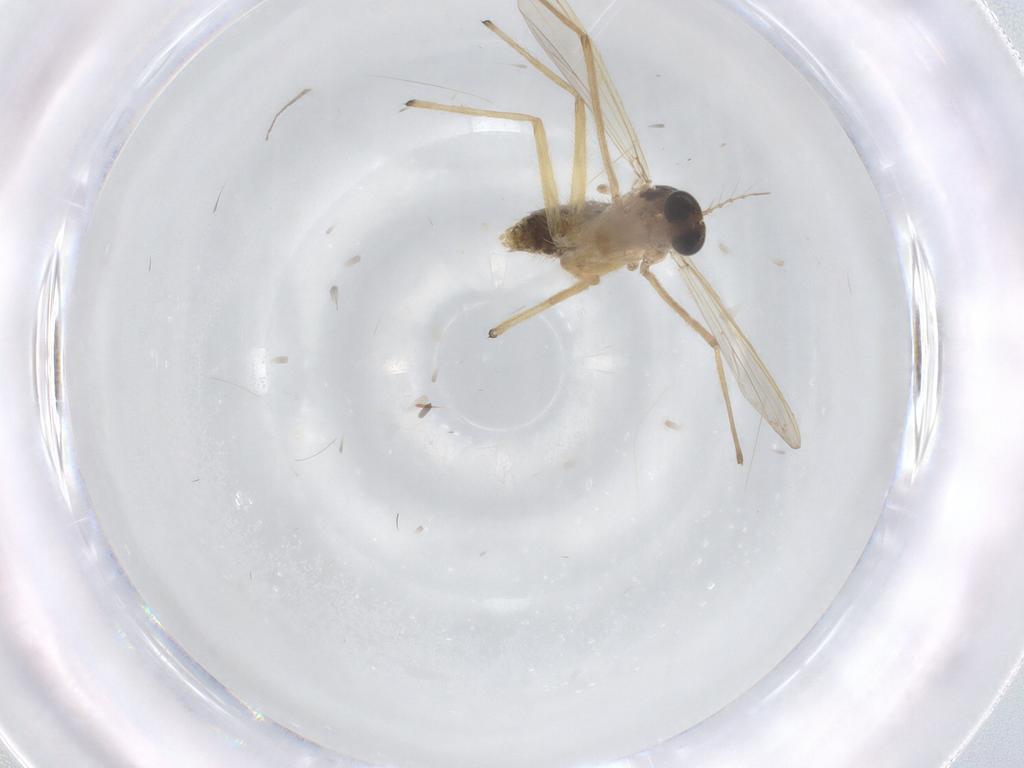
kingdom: Animalia
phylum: Arthropoda
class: Insecta
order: Diptera
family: Chironomidae
